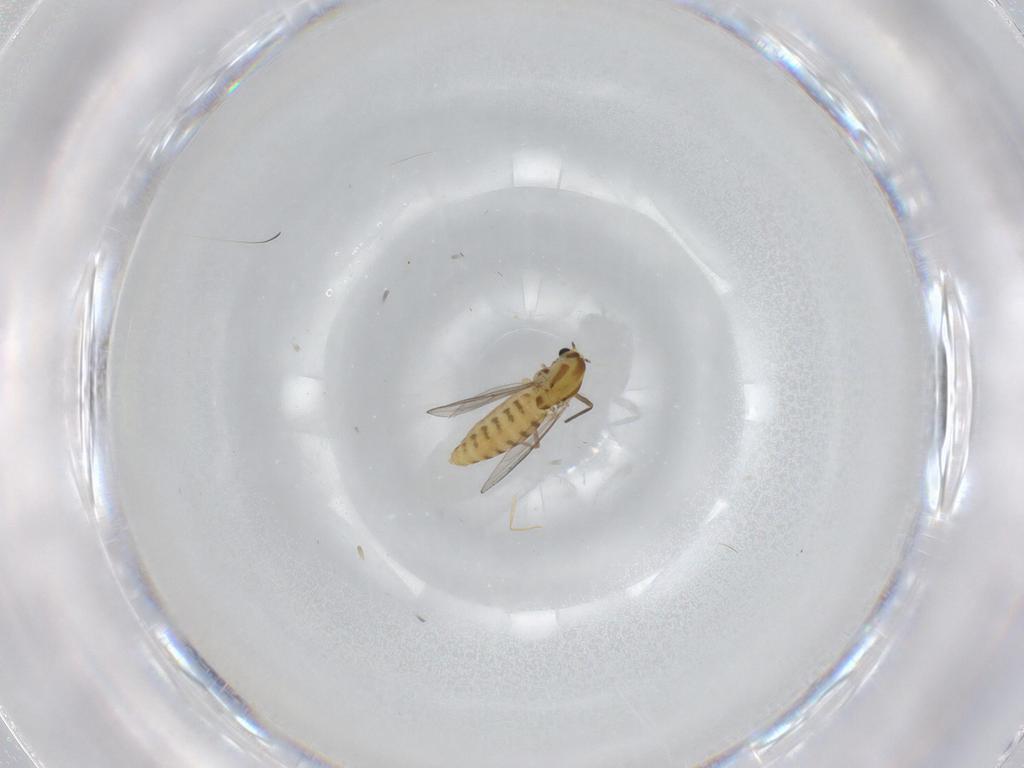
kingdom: Animalia
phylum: Arthropoda
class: Insecta
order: Diptera
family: Chironomidae
